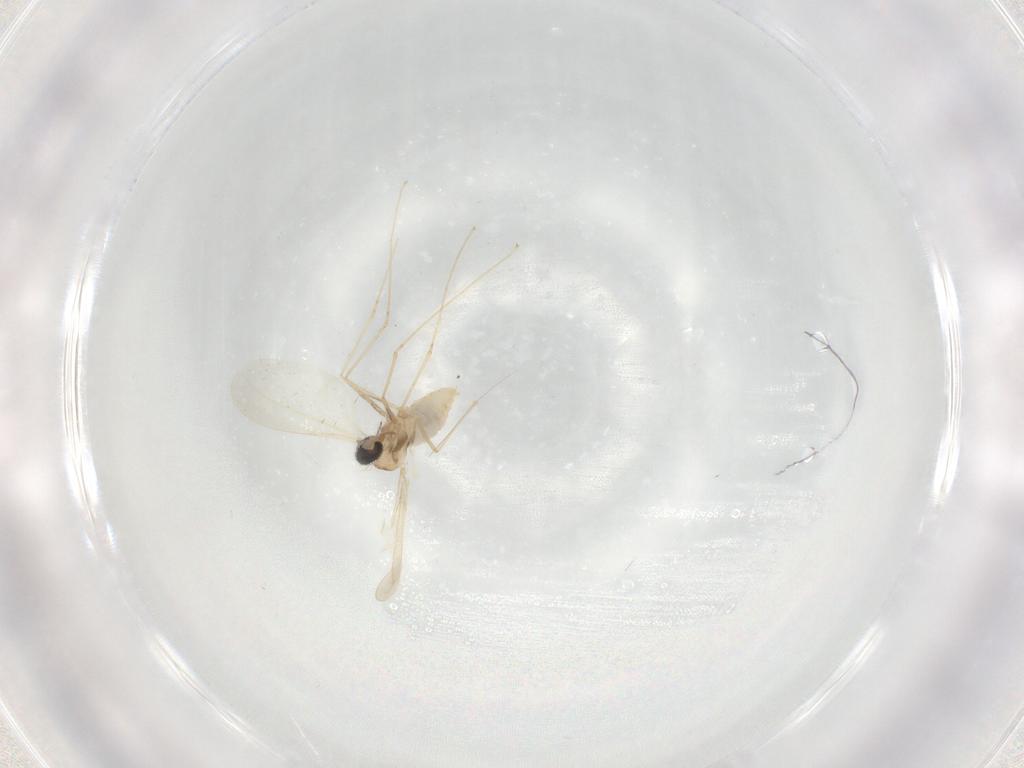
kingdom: Animalia
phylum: Arthropoda
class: Insecta
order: Diptera
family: Cecidomyiidae
